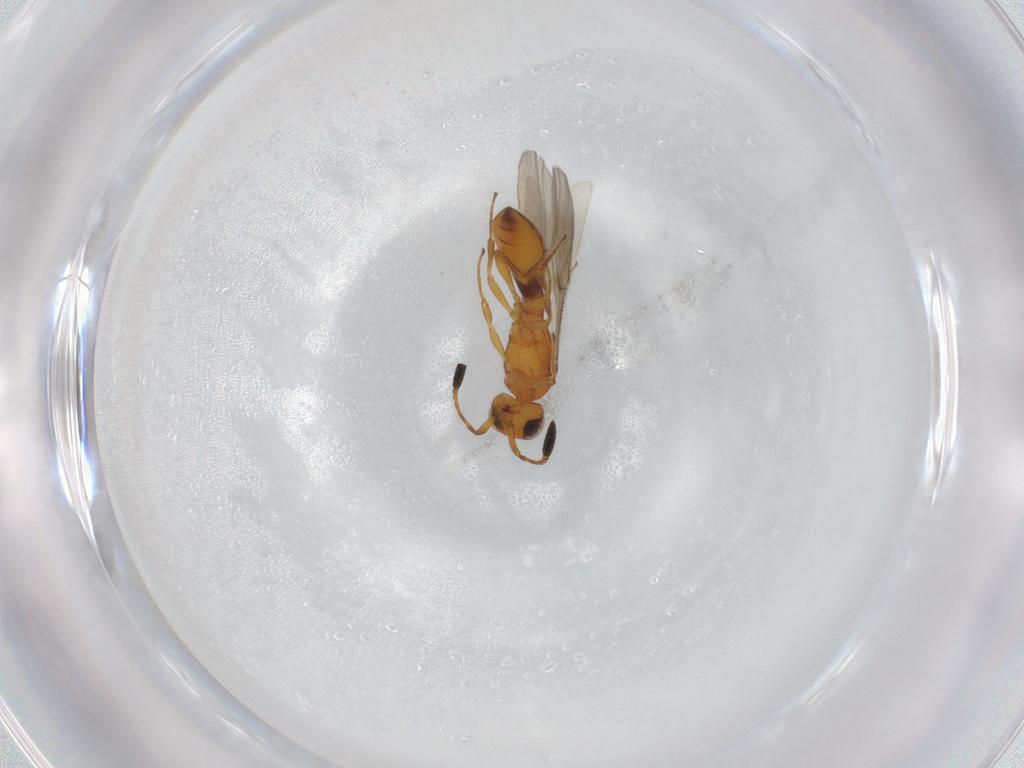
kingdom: Animalia
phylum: Arthropoda
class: Insecta
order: Hymenoptera
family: Scelionidae
